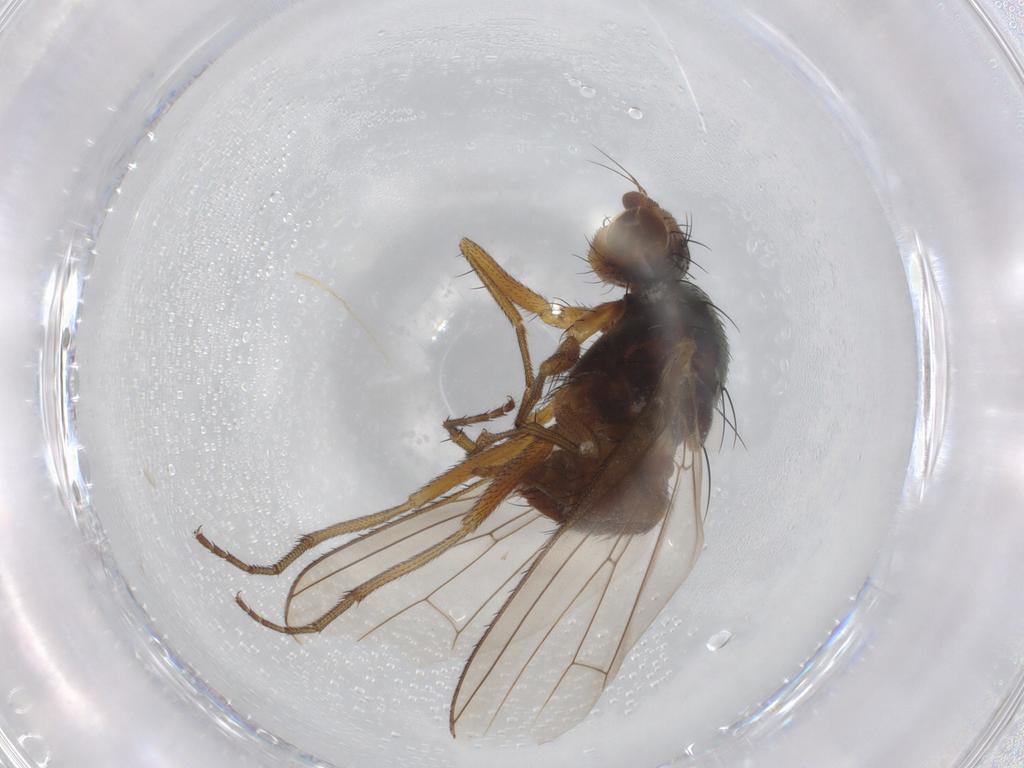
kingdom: Animalia
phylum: Arthropoda
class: Insecta
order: Diptera
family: Heleomyzidae
